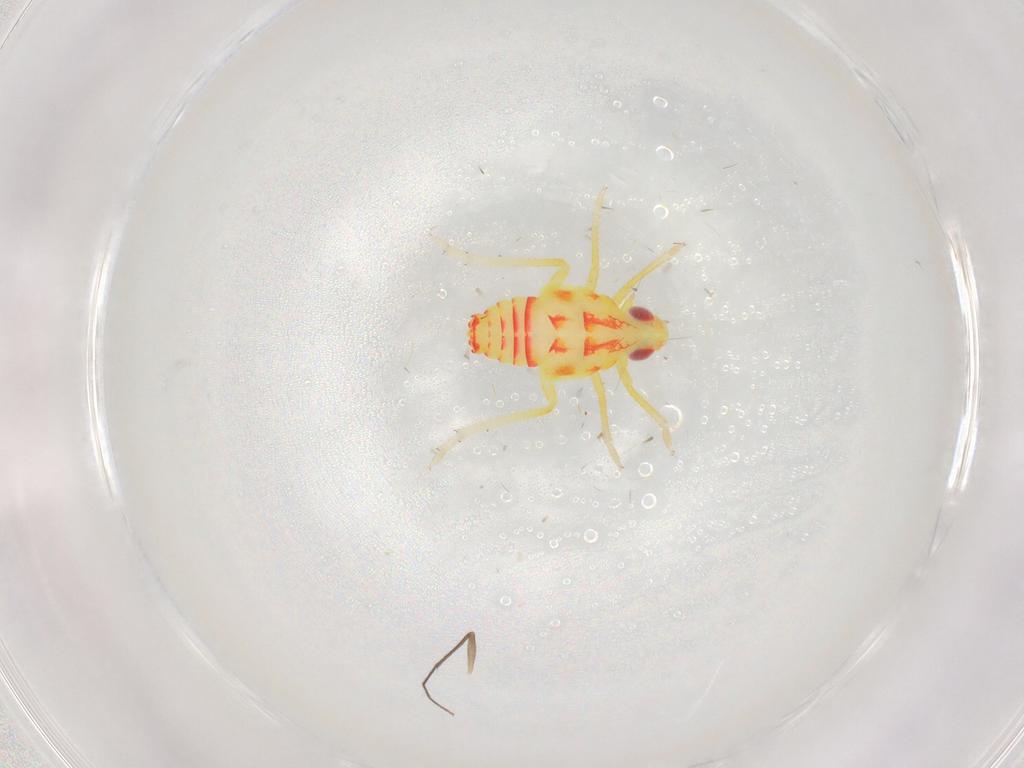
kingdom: Animalia
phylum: Arthropoda
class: Insecta
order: Hemiptera
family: Tropiduchidae
